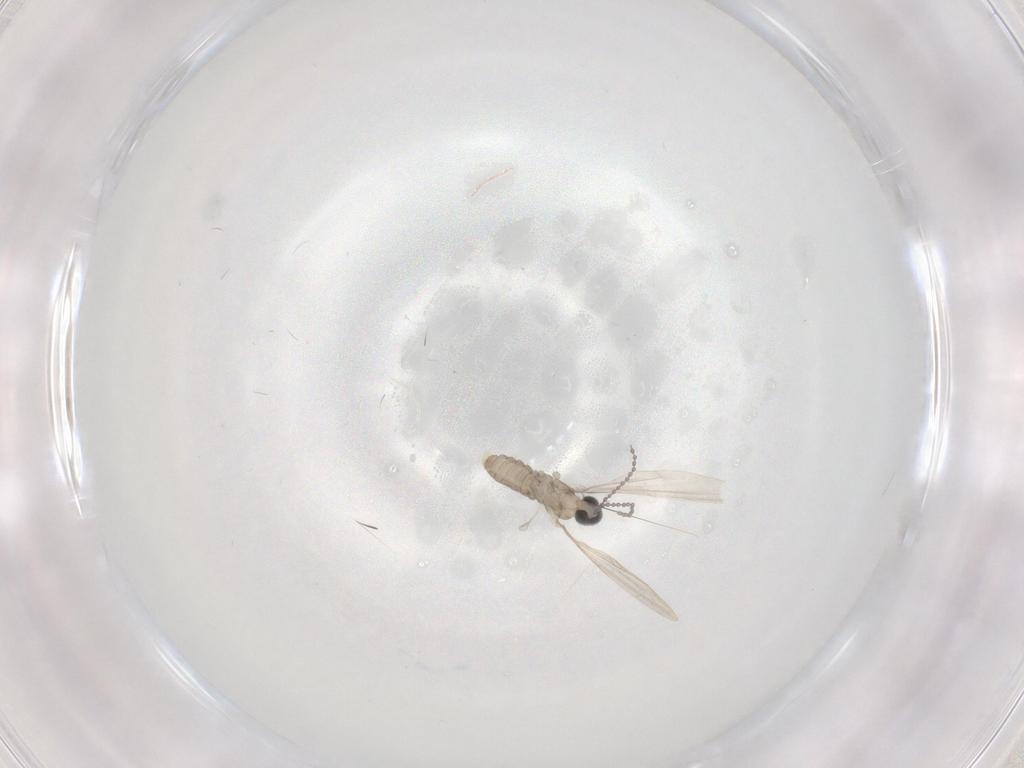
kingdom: Animalia
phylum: Arthropoda
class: Insecta
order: Diptera
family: Cecidomyiidae
